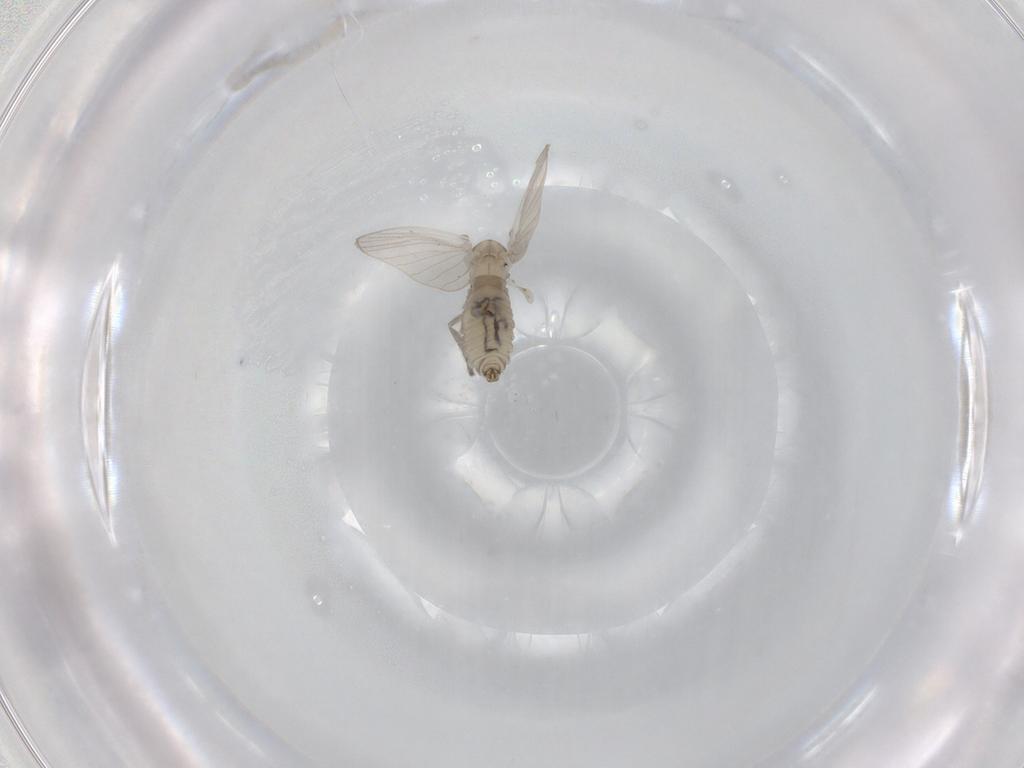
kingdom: Animalia
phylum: Arthropoda
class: Insecta
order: Diptera
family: Psychodidae
